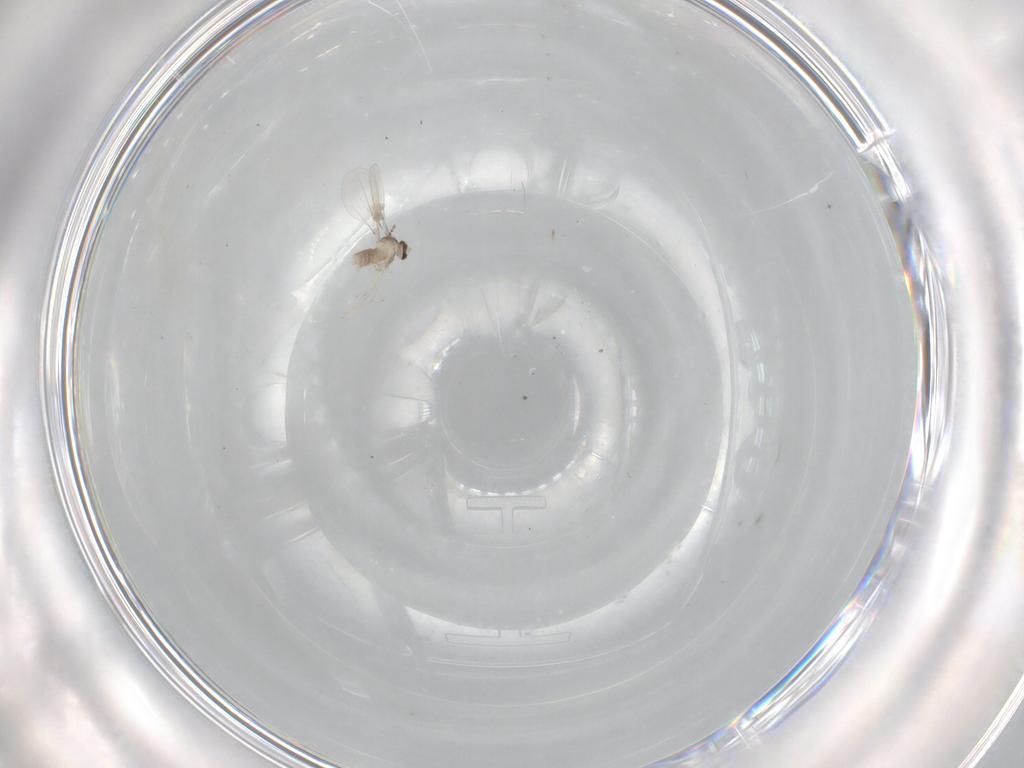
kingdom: Animalia
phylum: Arthropoda
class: Insecta
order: Diptera
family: Cecidomyiidae
